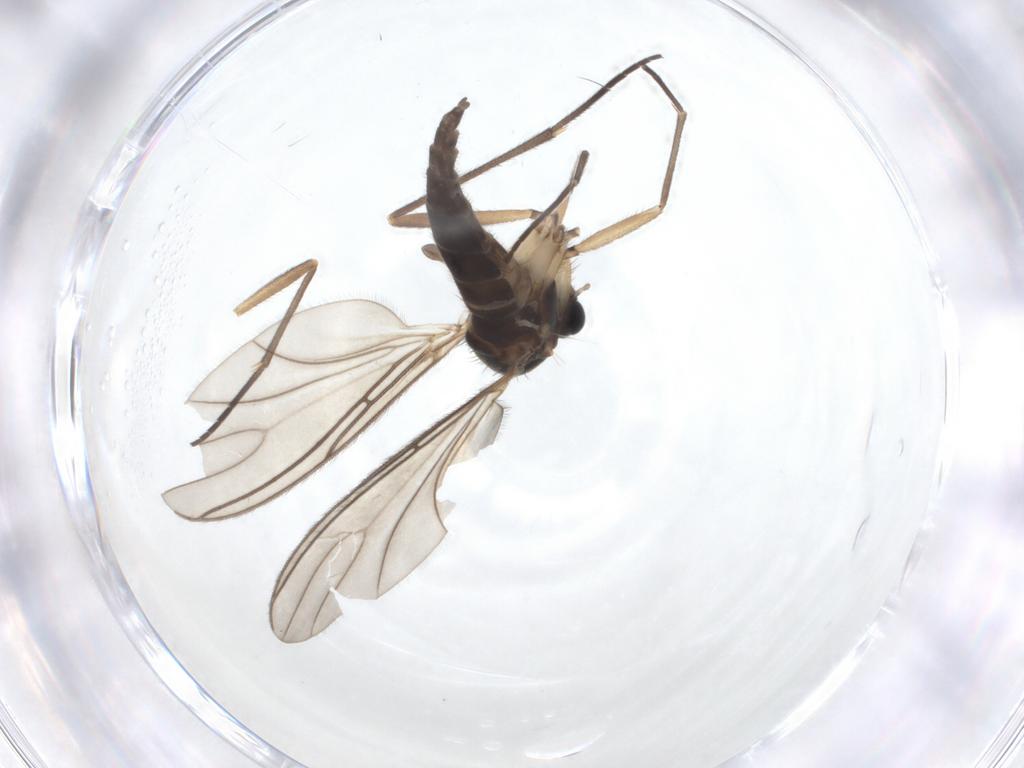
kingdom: Animalia
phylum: Arthropoda
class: Insecta
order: Diptera
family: Sciaridae
